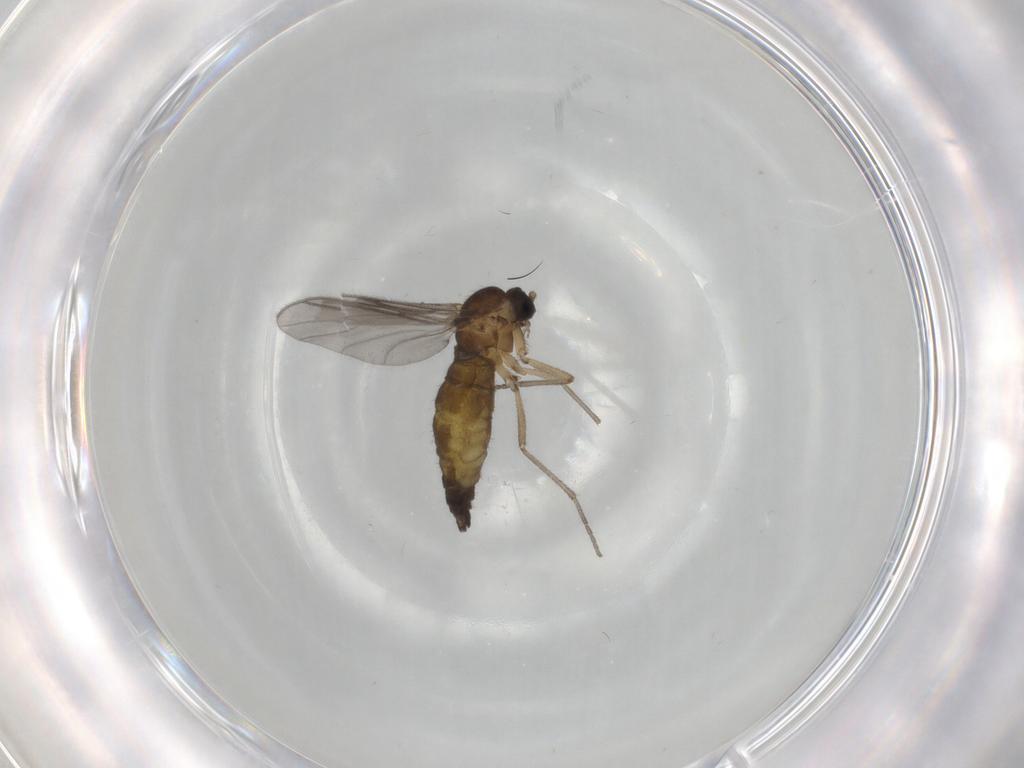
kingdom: Animalia
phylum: Arthropoda
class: Insecta
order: Diptera
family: Sciaridae
